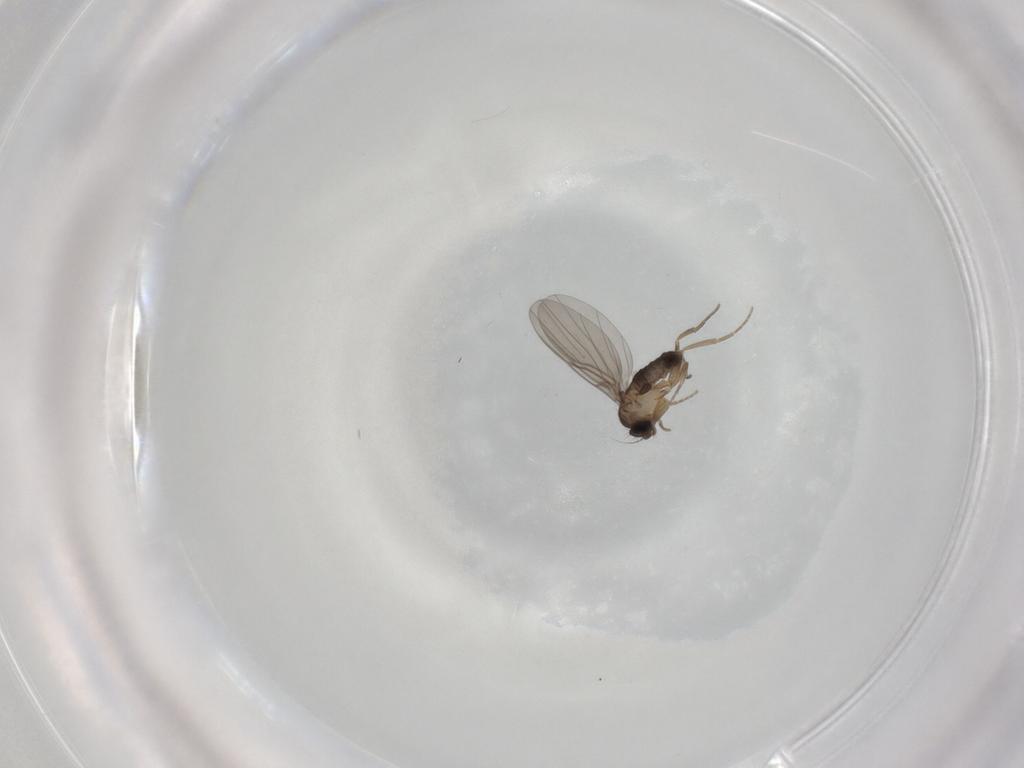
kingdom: Animalia
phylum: Arthropoda
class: Insecta
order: Diptera
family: Phoridae
